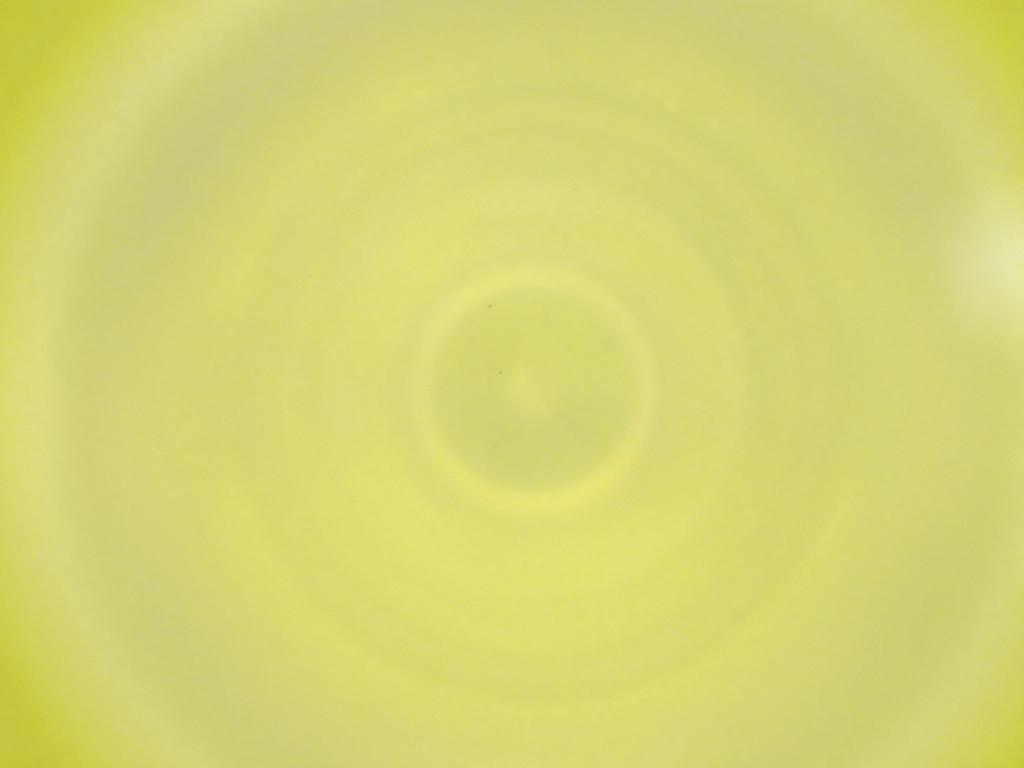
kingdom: Animalia
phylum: Arthropoda
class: Insecta
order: Diptera
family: Cecidomyiidae
